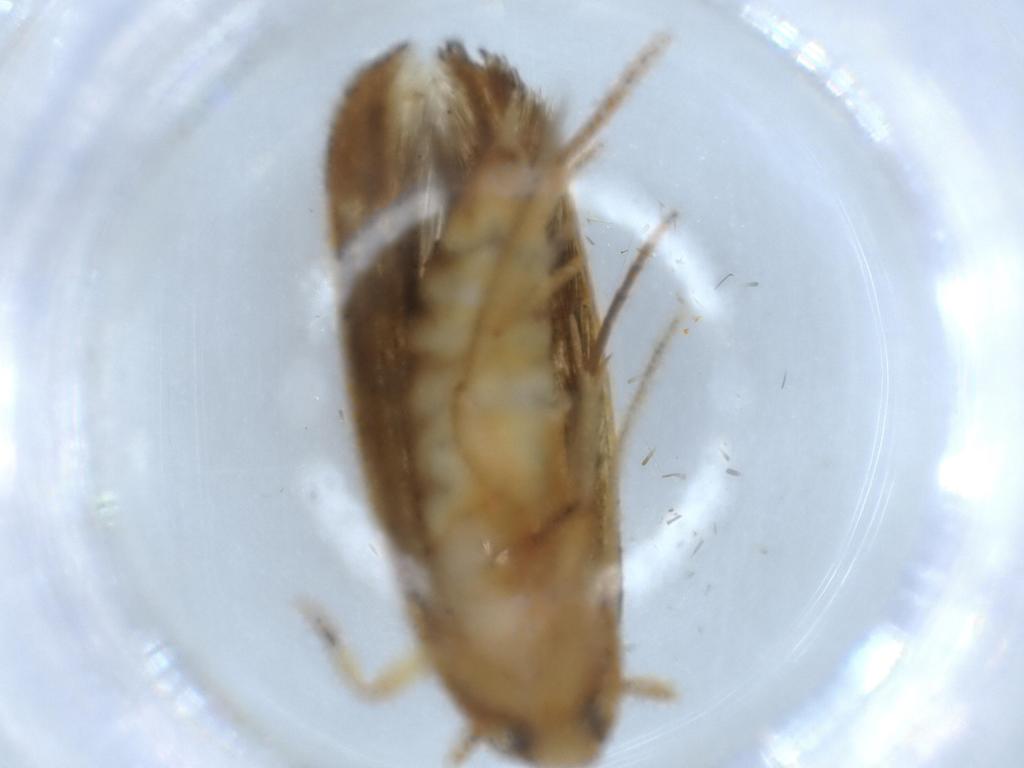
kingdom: Animalia
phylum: Arthropoda
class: Insecta
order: Lepidoptera
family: Tineidae
